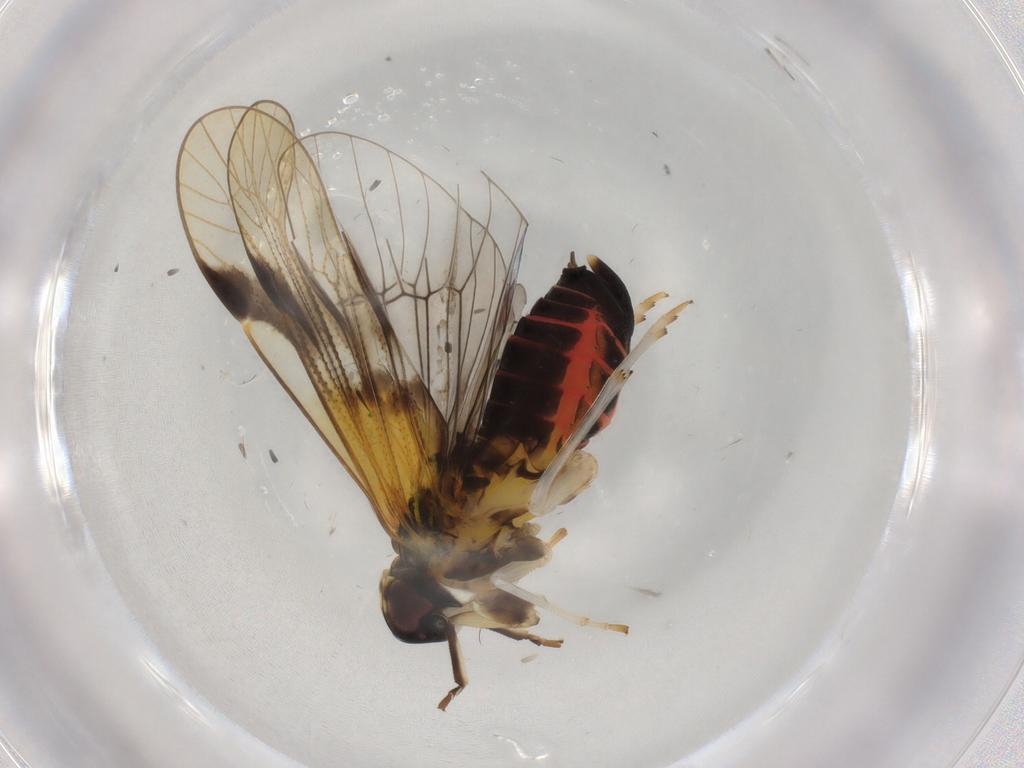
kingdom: Animalia
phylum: Arthropoda
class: Insecta
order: Hemiptera
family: Cixiidae
